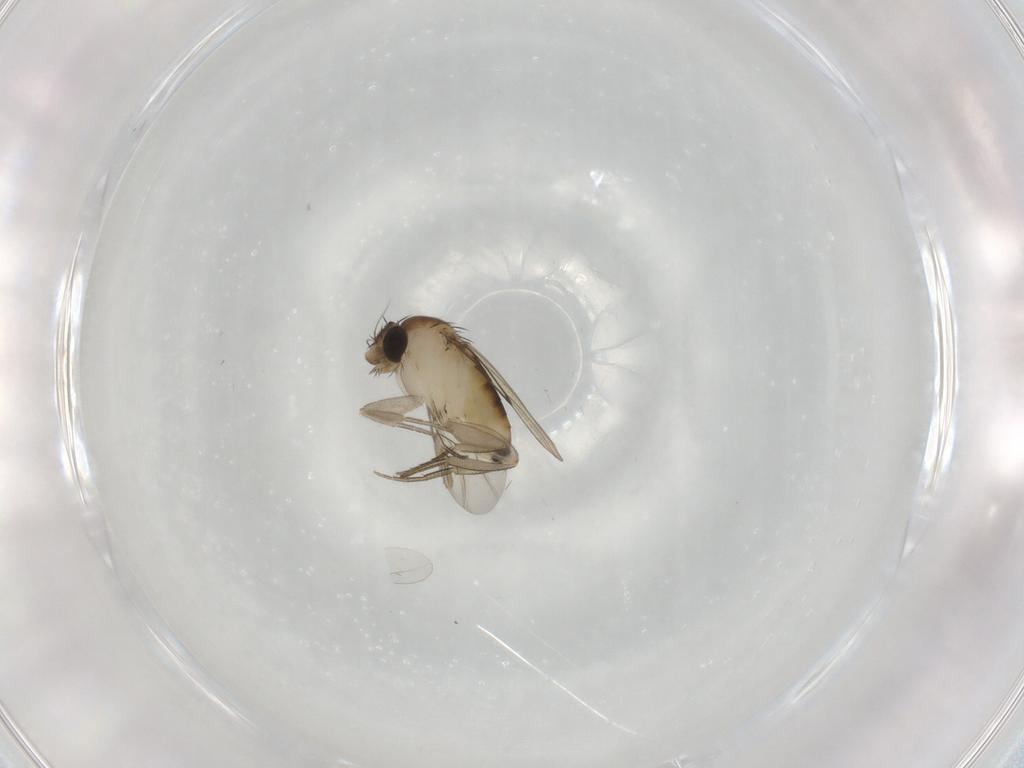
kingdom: Animalia
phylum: Arthropoda
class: Insecta
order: Diptera
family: Phoridae
